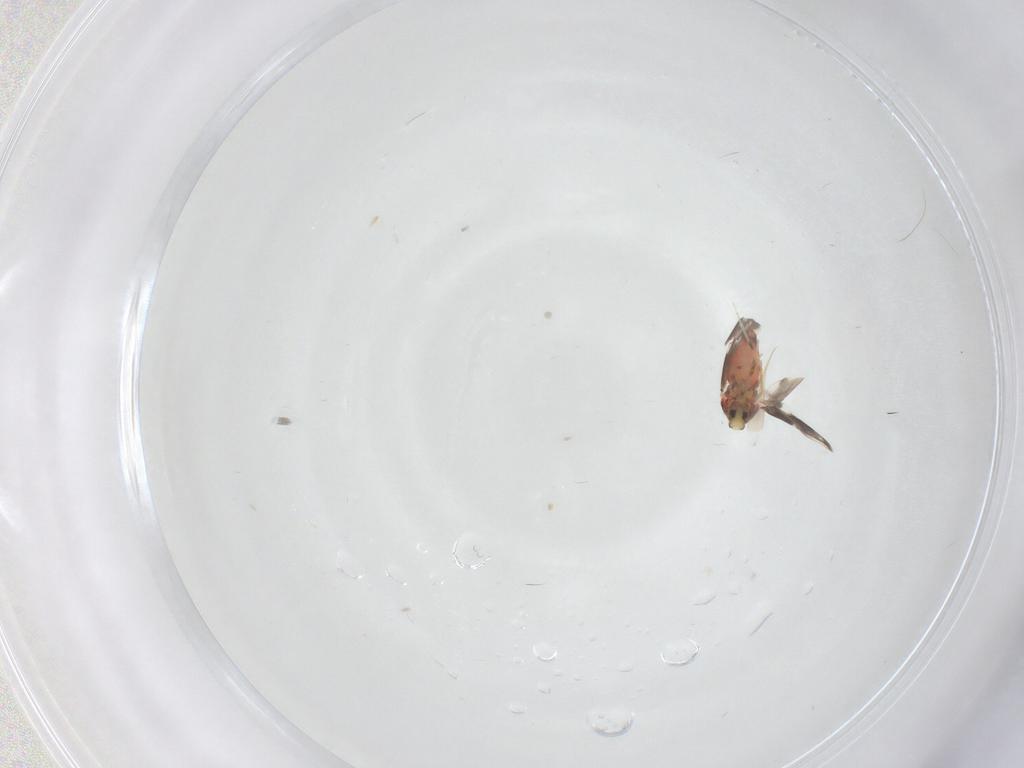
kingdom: Animalia
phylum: Arthropoda
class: Insecta
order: Hemiptera
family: Aleyrodidae
